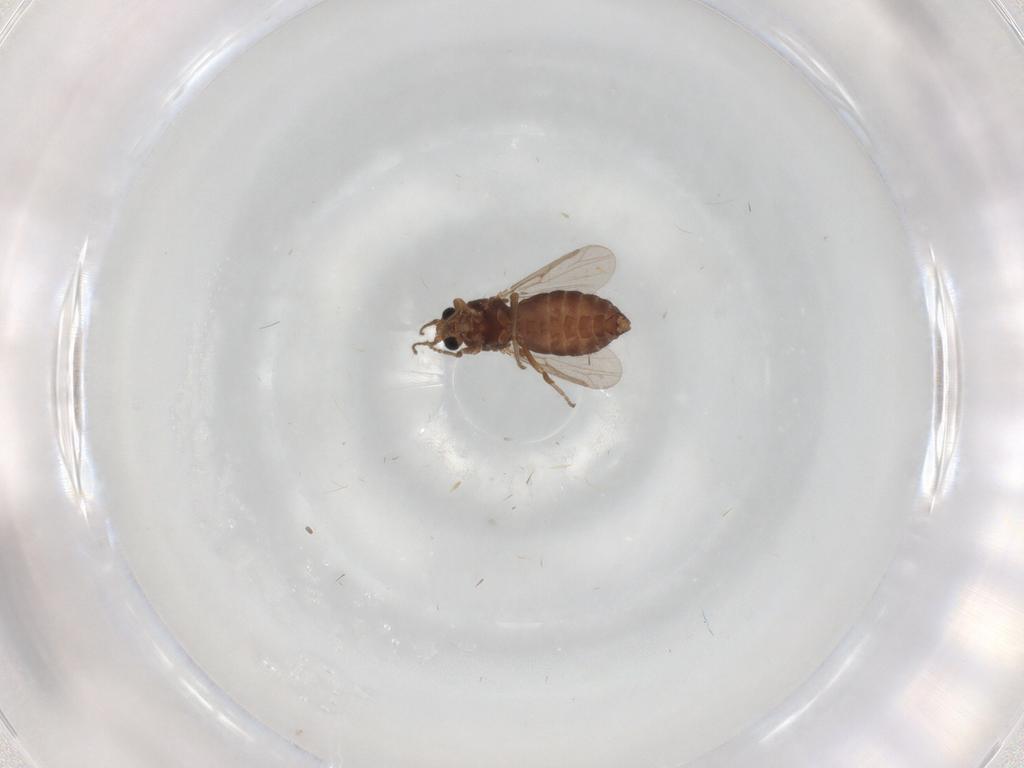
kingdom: Animalia
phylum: Arthropoda
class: Insecta
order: Diptera
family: Ceratopogonidae
